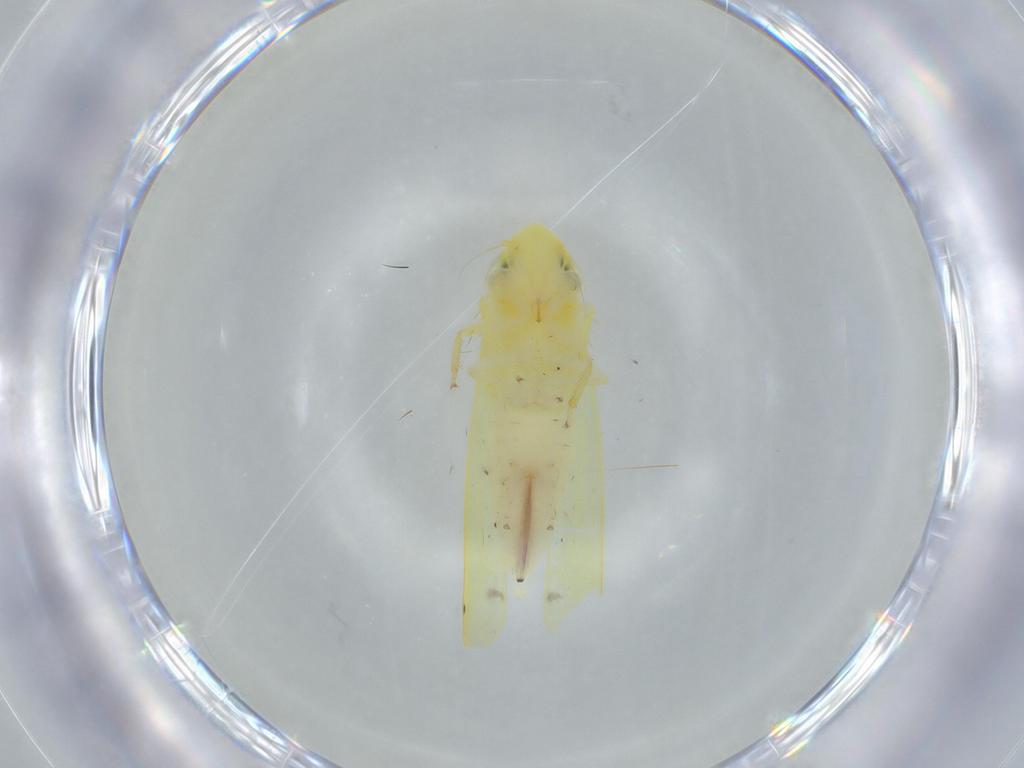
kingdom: Animalia
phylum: Arthropoda
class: Insecta
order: Hemiptera
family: Cicadellidae
